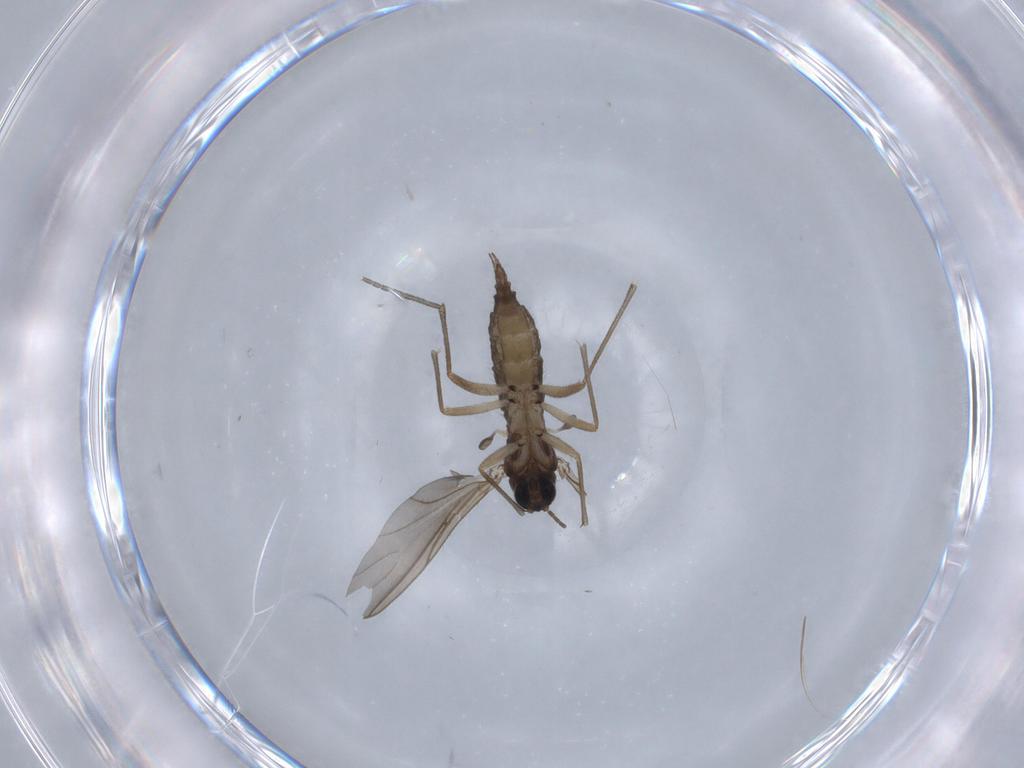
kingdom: Animalia
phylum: Arthropoda
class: Insecta
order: Diptera
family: Sciaridae
